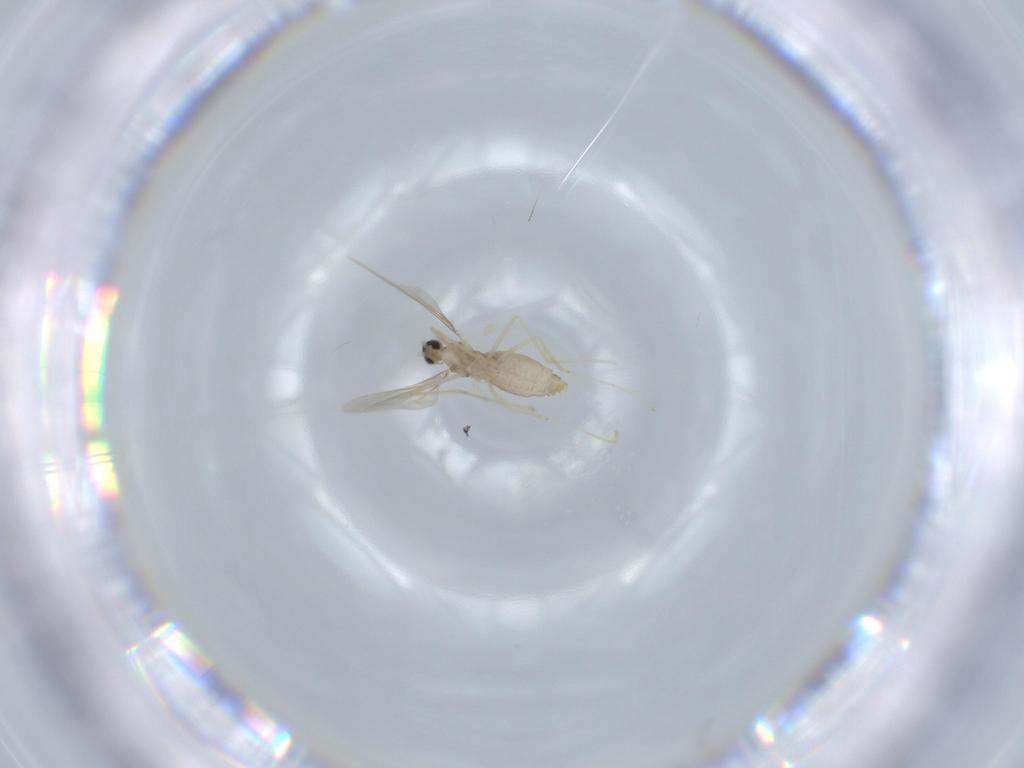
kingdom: Animalia
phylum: Arthropoda
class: Insecta
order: Diptera
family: Cecidomyiidae
